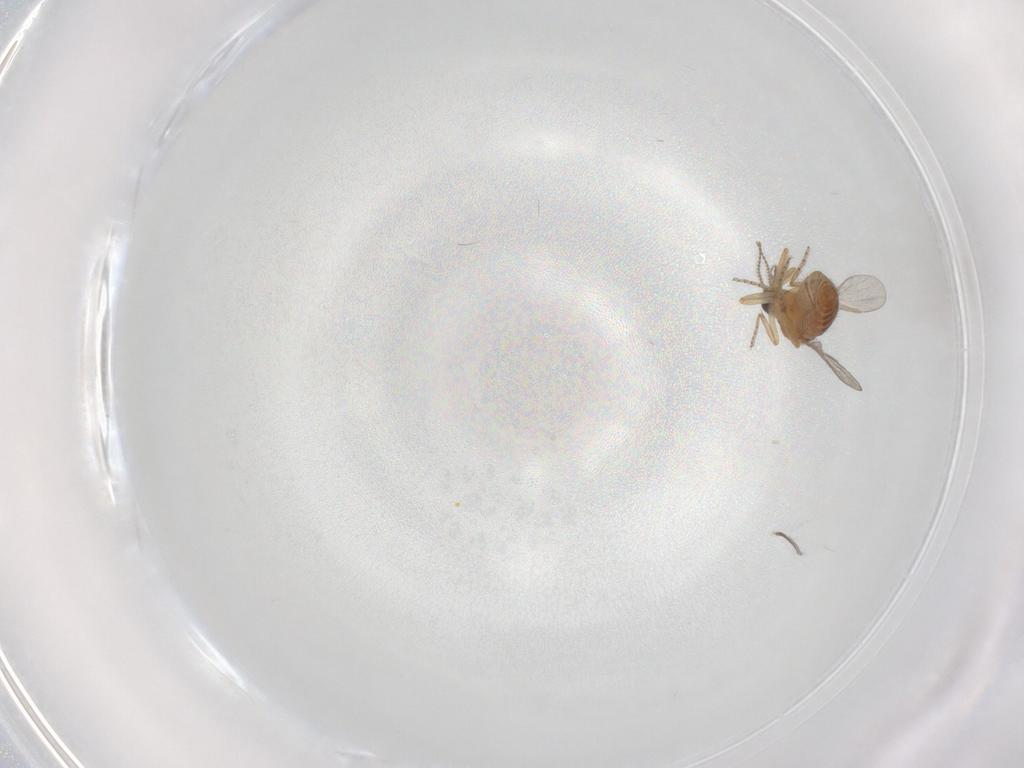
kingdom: Animalia
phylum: Arthropoda
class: Insecta
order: Diptera
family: Ceratopogonidae
